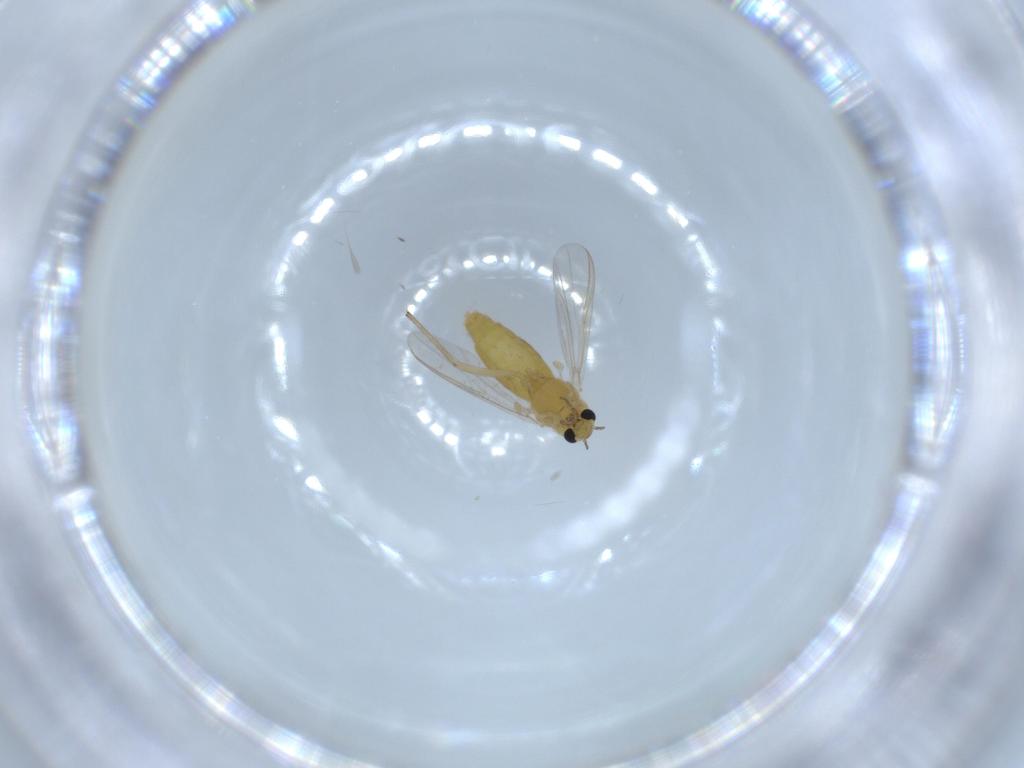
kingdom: Animalia
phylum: Arthropoda
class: Insecta
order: Diptera
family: Chironomidae
